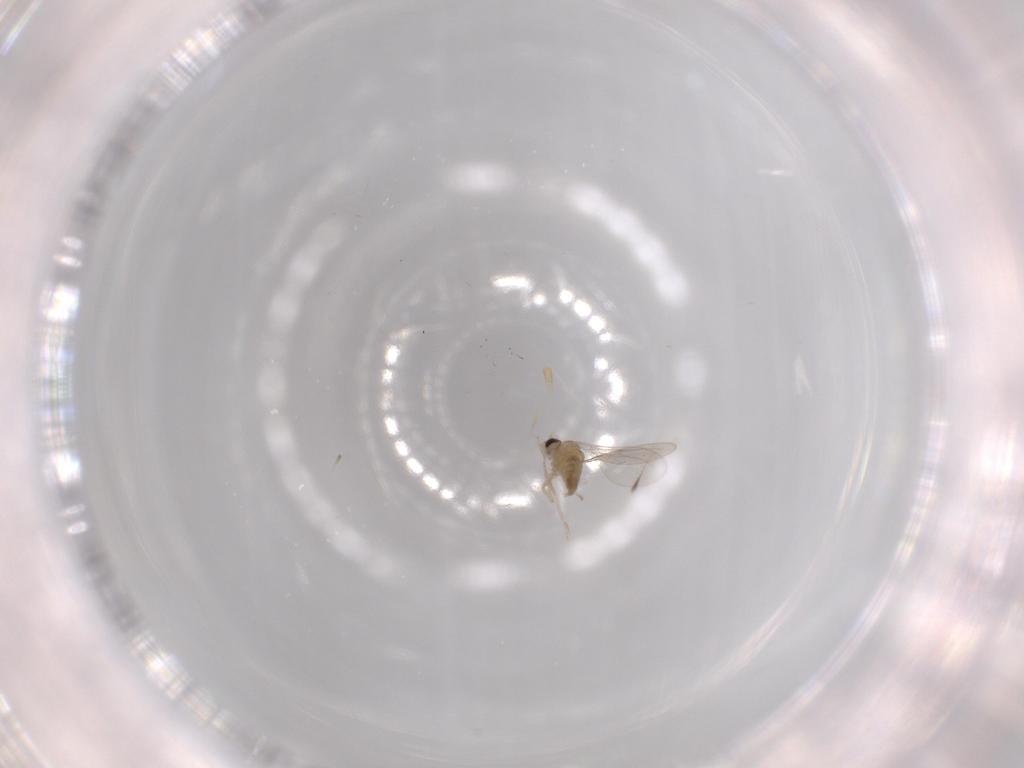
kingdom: Animalia
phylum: Arthropoda
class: Insecta
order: Diptera
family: Cecidomyiidae
